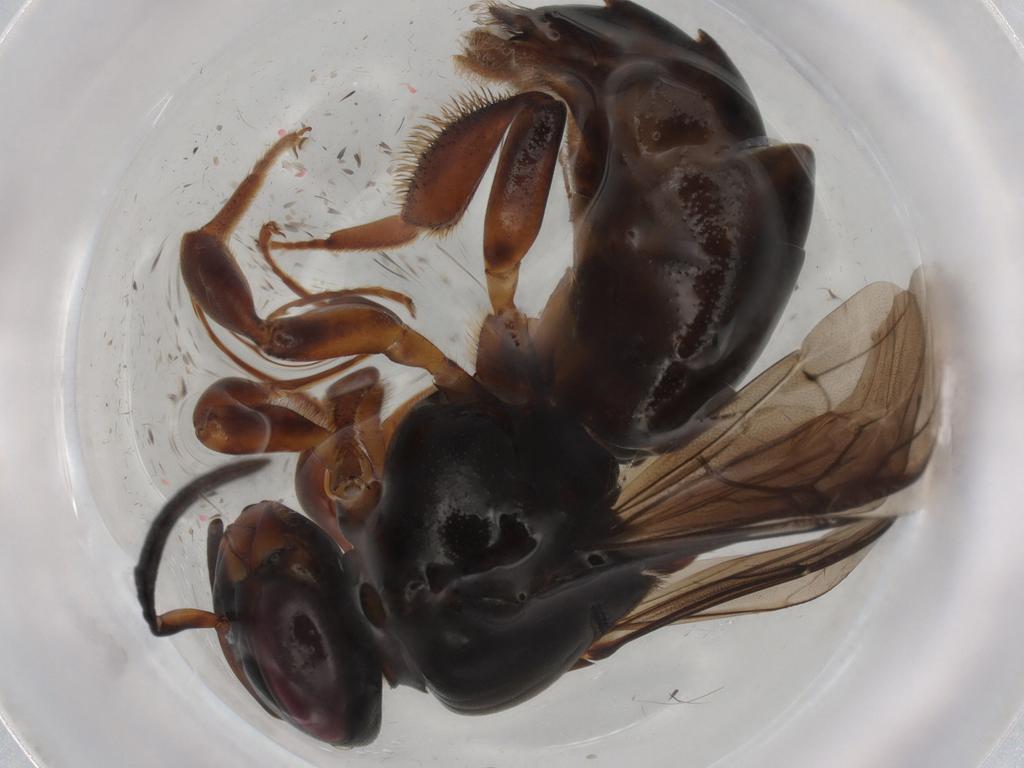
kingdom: Animalia
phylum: Arthropoda
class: Insecta
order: Hymenoptera
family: Apidae
